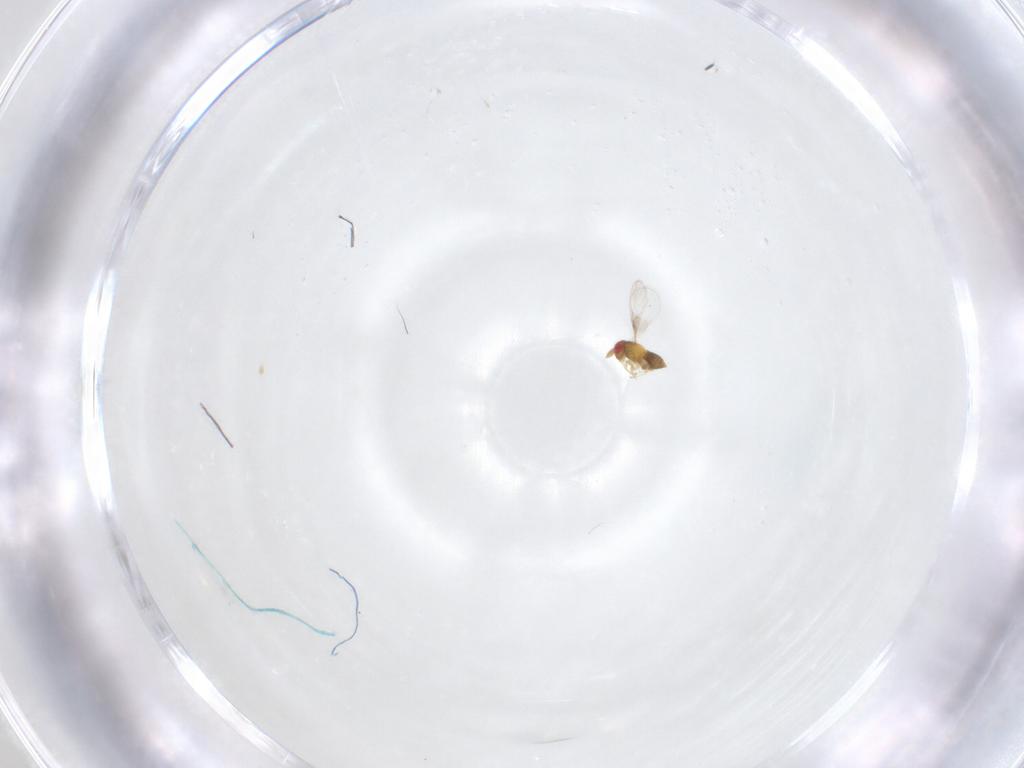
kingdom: Animalia
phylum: Arthropoda
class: Insecta
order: Hymenoptera
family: Trichogrammatidae
